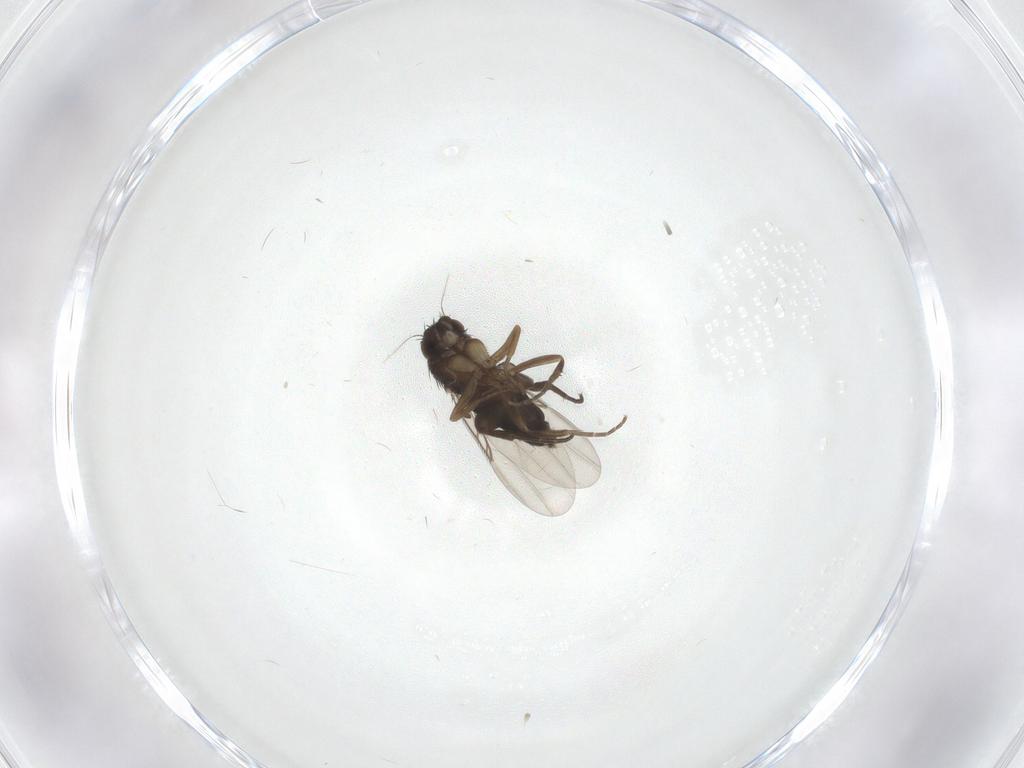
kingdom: Animalia
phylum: Arthropoda
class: Insecta
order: Diptera
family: Phoridae
